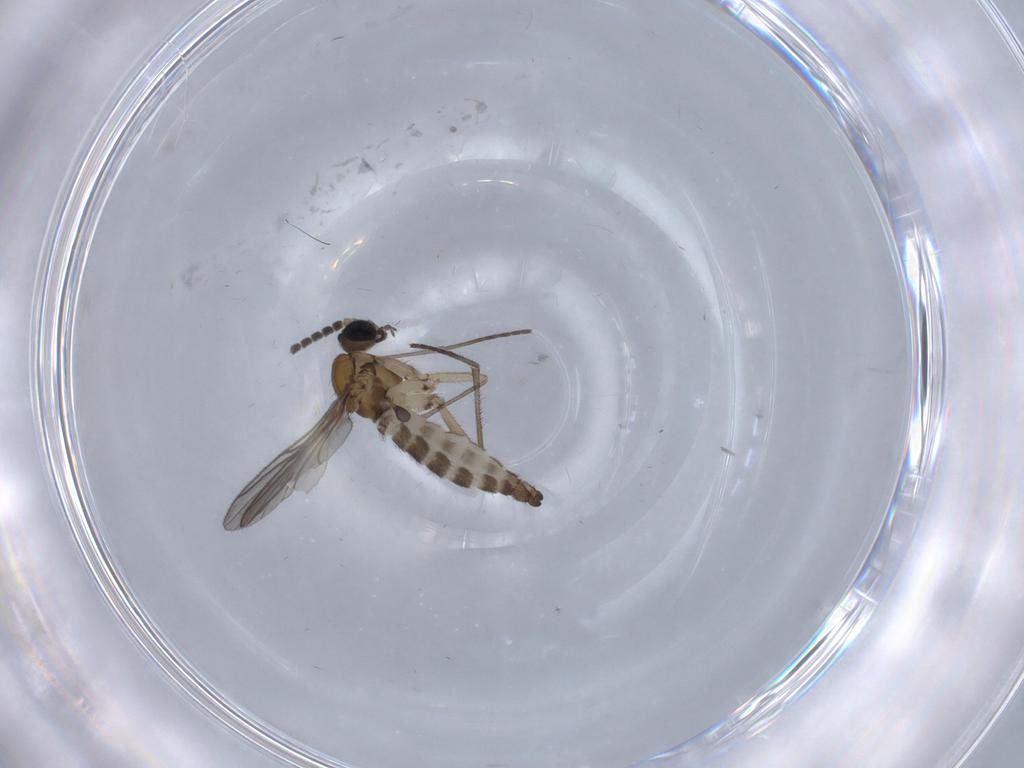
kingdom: Animalia
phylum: Arthropoda
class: Insecta
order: Diptera
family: Sciaridae
